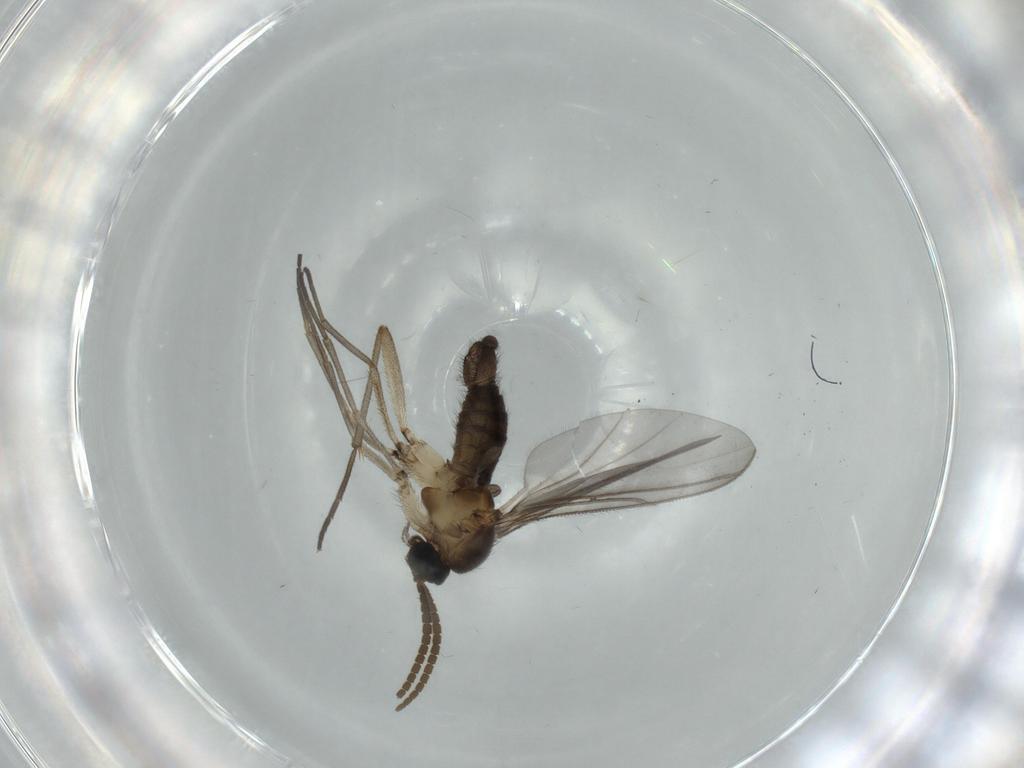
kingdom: Animalia
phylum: Arthropoda
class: Insecta
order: Diptera
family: Sciaridae
